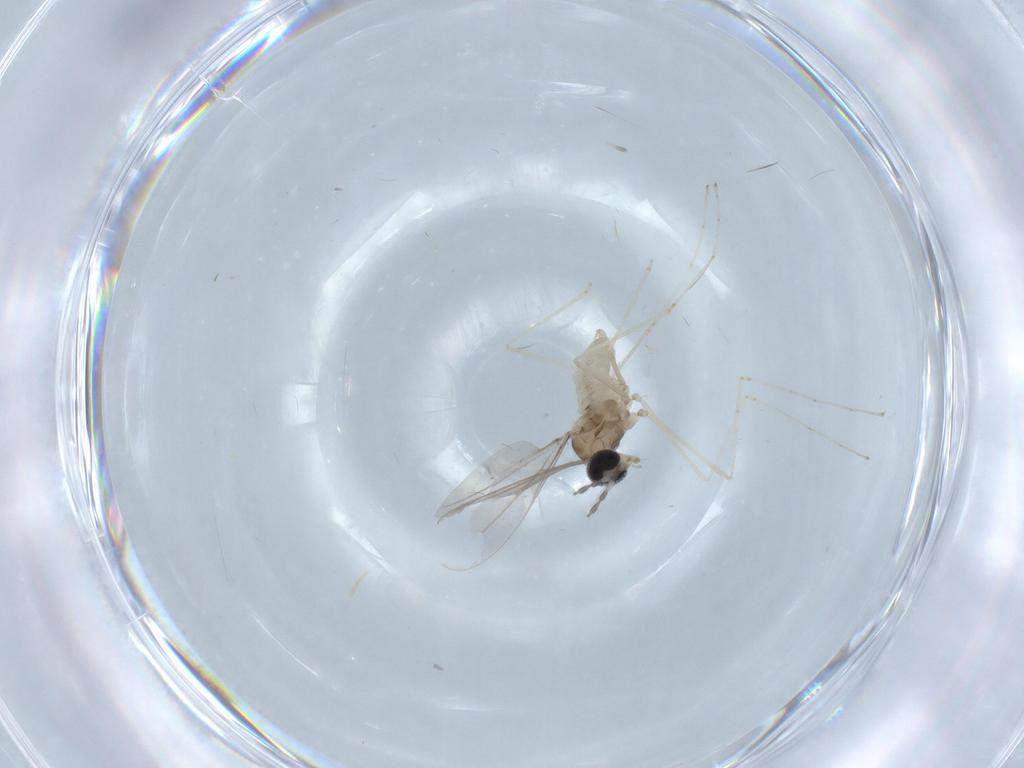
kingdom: Animalia
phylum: Arthropoda
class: Insecta
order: Diptera
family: Cecidomyiidae
